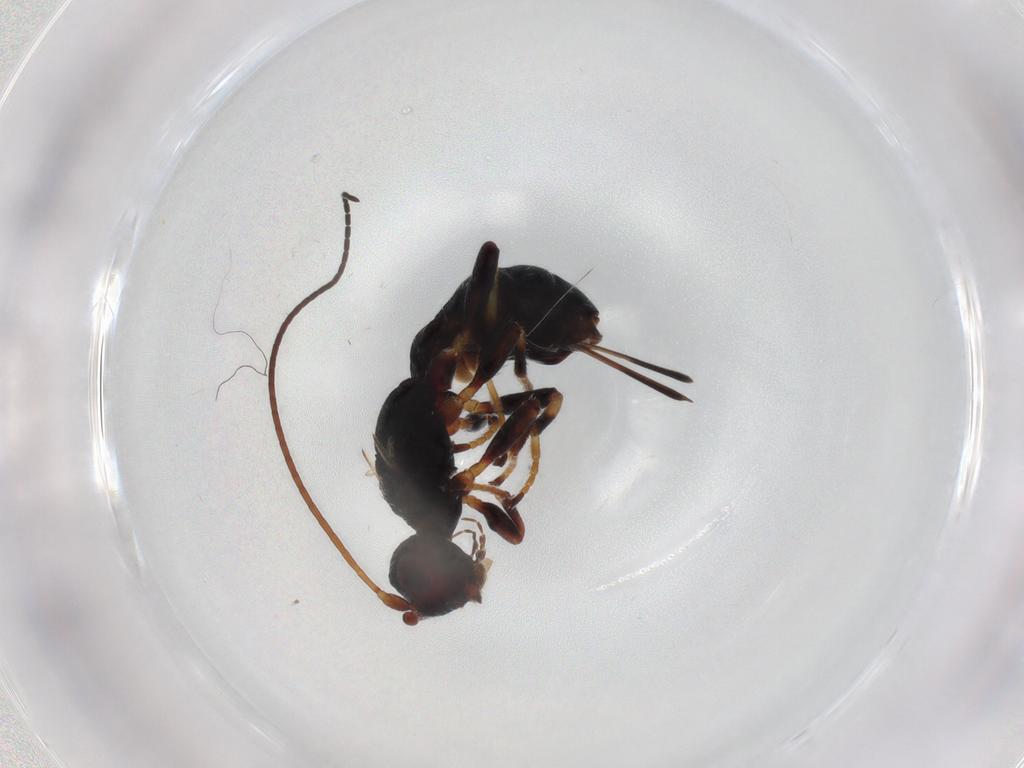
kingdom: Animalia
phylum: Arthropoda
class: Insecta
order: Hymenoptera
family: Braconidae
